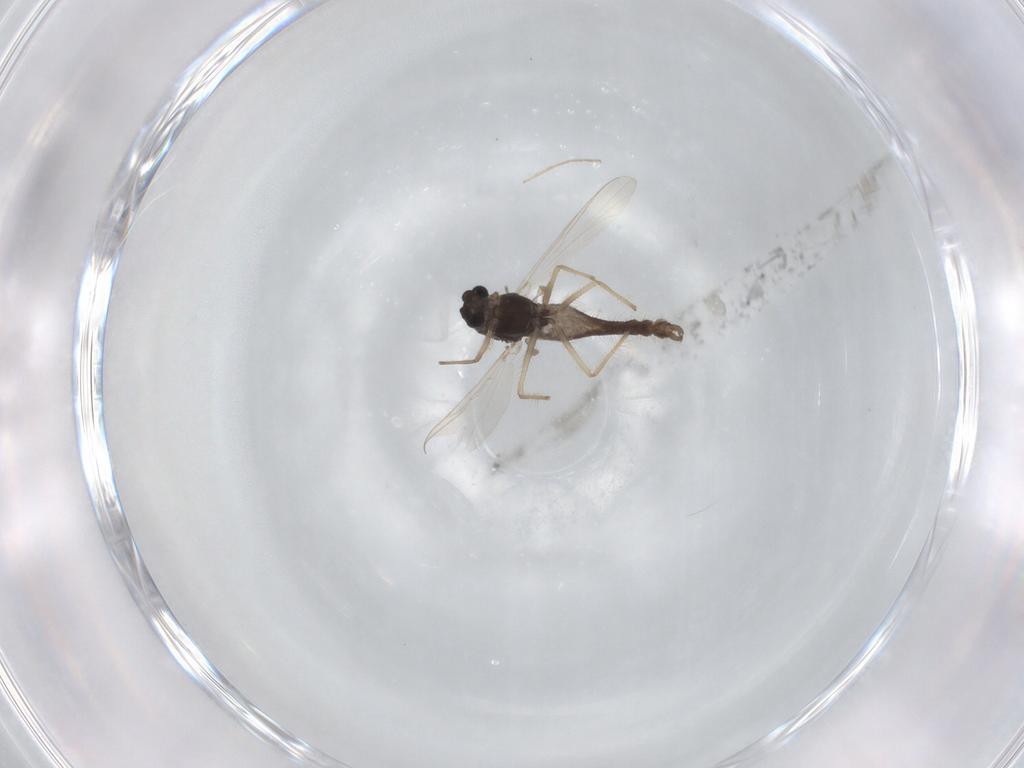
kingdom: Animalia
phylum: Arthropoda
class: Insecta
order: Diptera
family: Chironomidae
